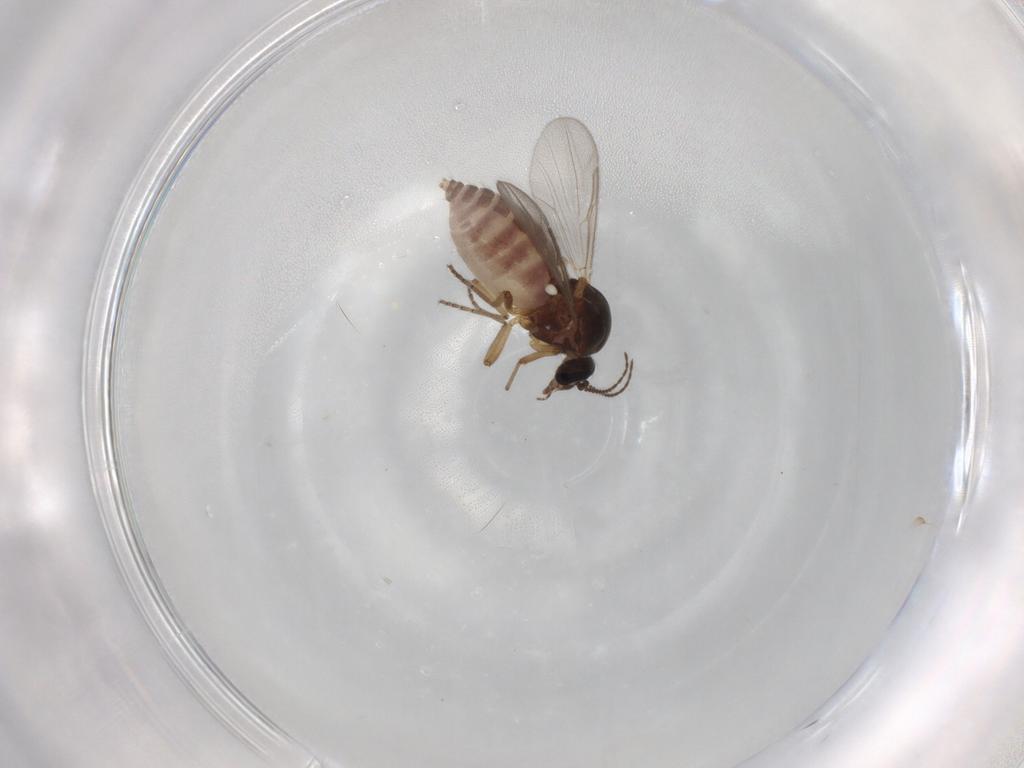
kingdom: Animalia
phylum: Arthropoda
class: Insecta
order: Diptera
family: Ceratopogonidae
